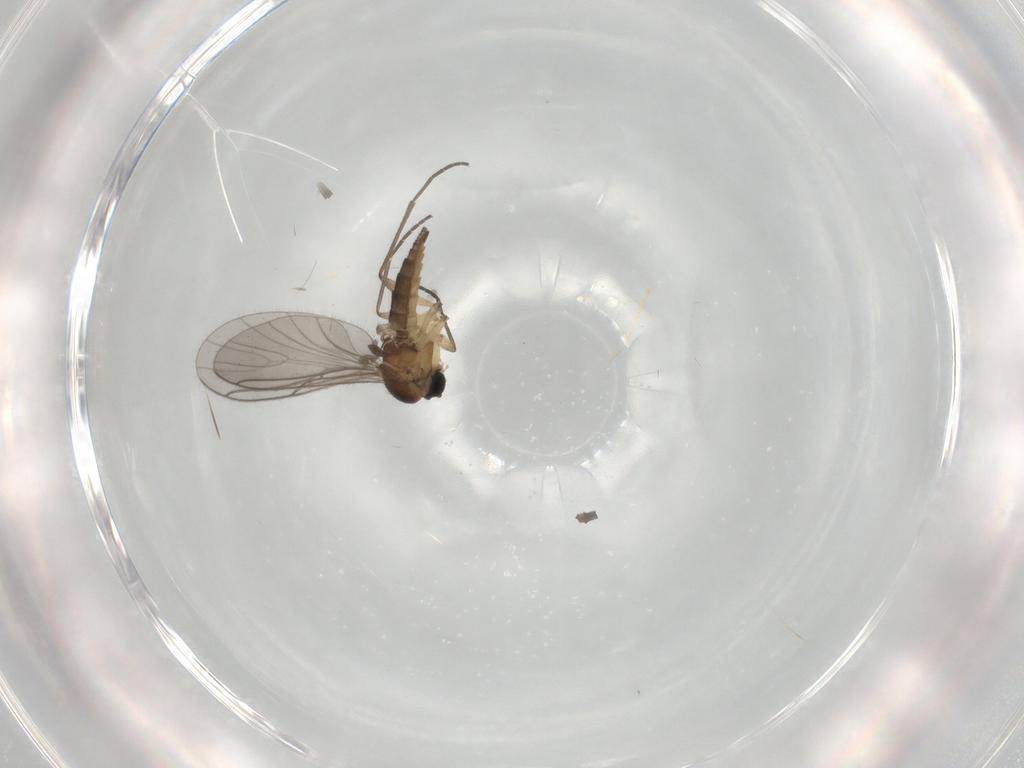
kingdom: Animalia
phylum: Arthropoda
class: Insecta
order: Diptera
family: Sciaridae
